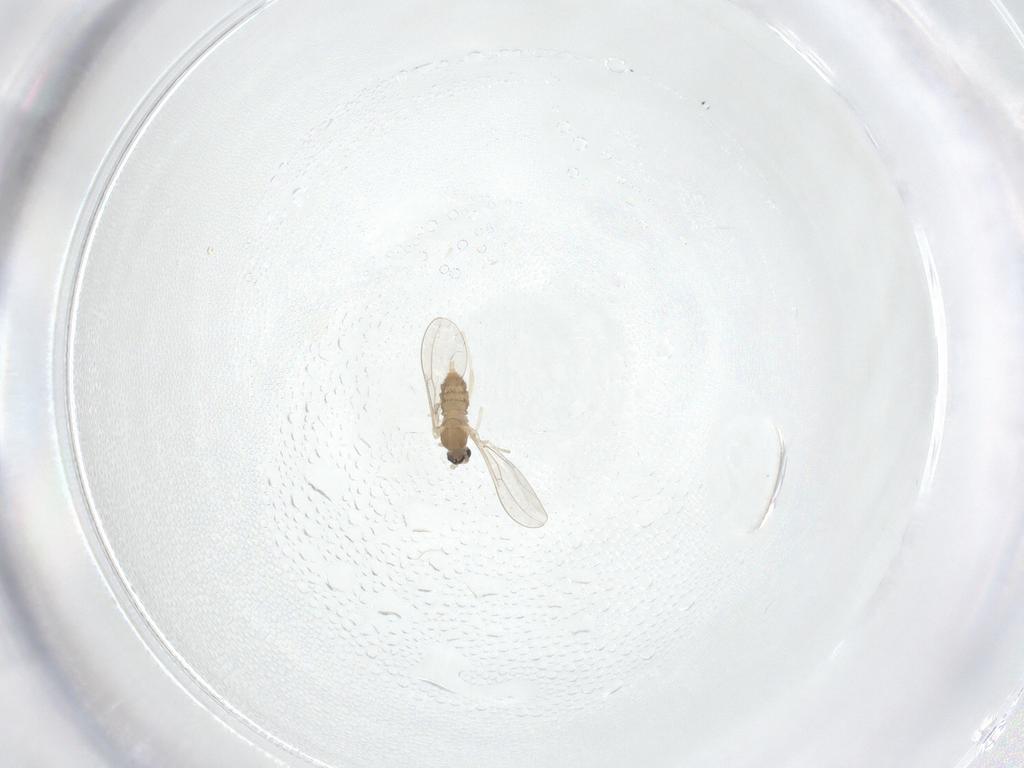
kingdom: Animalia
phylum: Arthropoda
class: Insecta
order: Diptera
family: Cecidomyiidae
